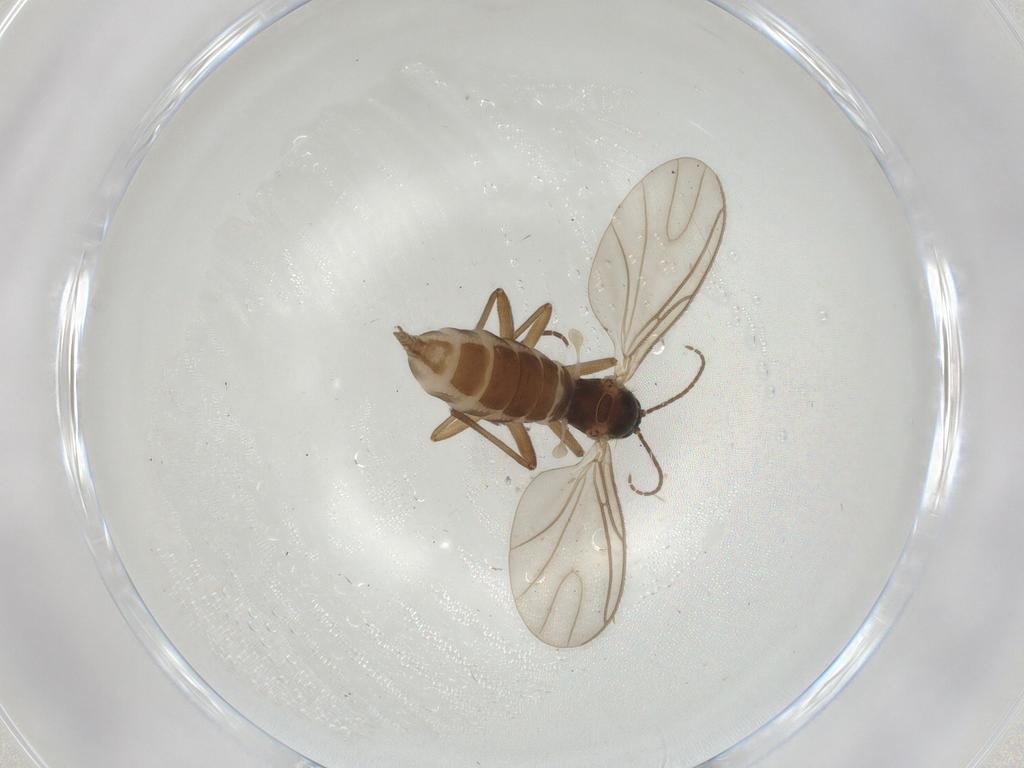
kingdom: Animalia
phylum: Arthropoda
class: Insecta
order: Diptera
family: Sciaridae
